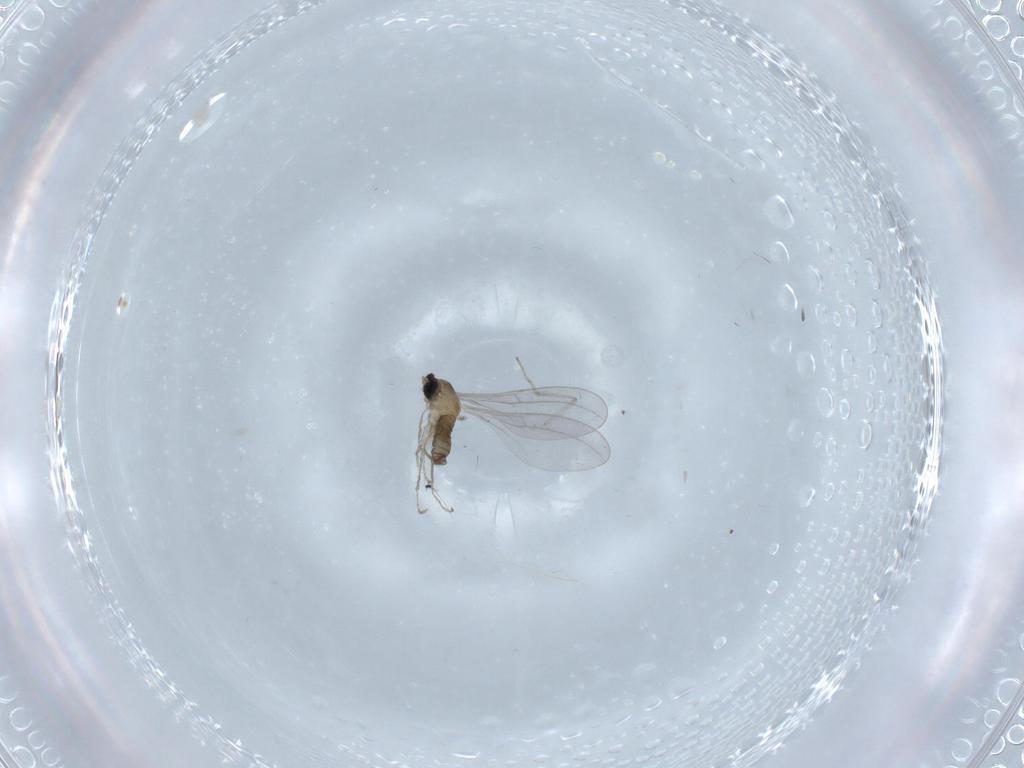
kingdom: Animalia
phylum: Arthropoda
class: Insecta
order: Diptera
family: Cecidomyiidae
